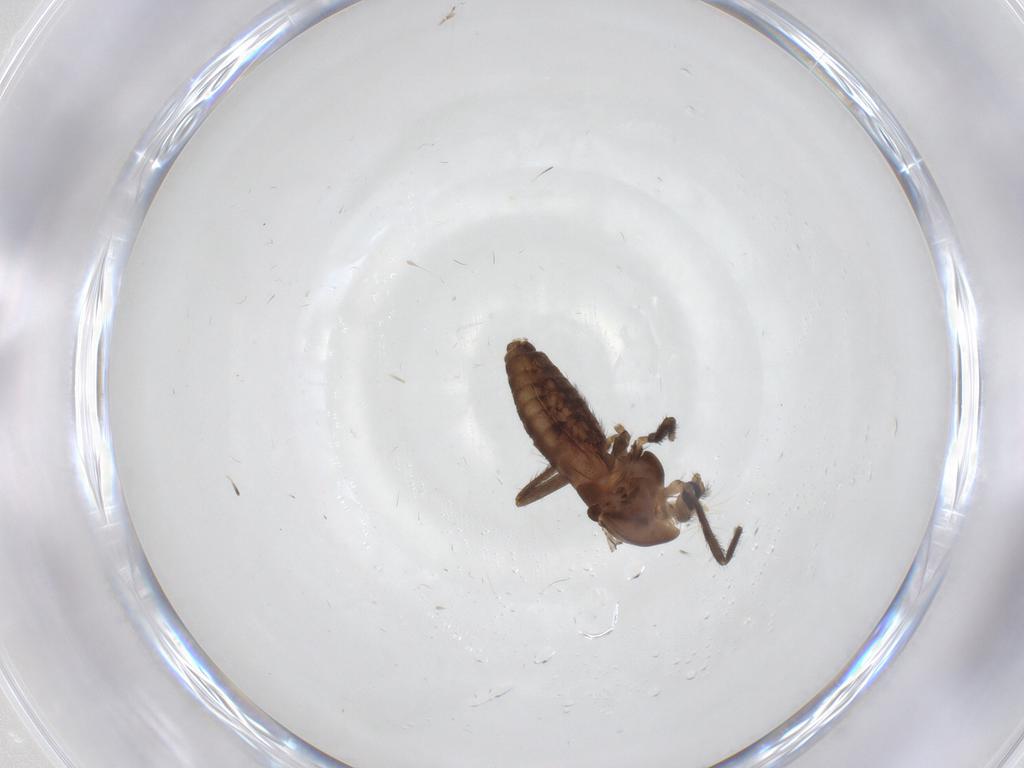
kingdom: Animalia
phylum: Arthropoda
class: Insecta
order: Diptera
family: Chironomidae
